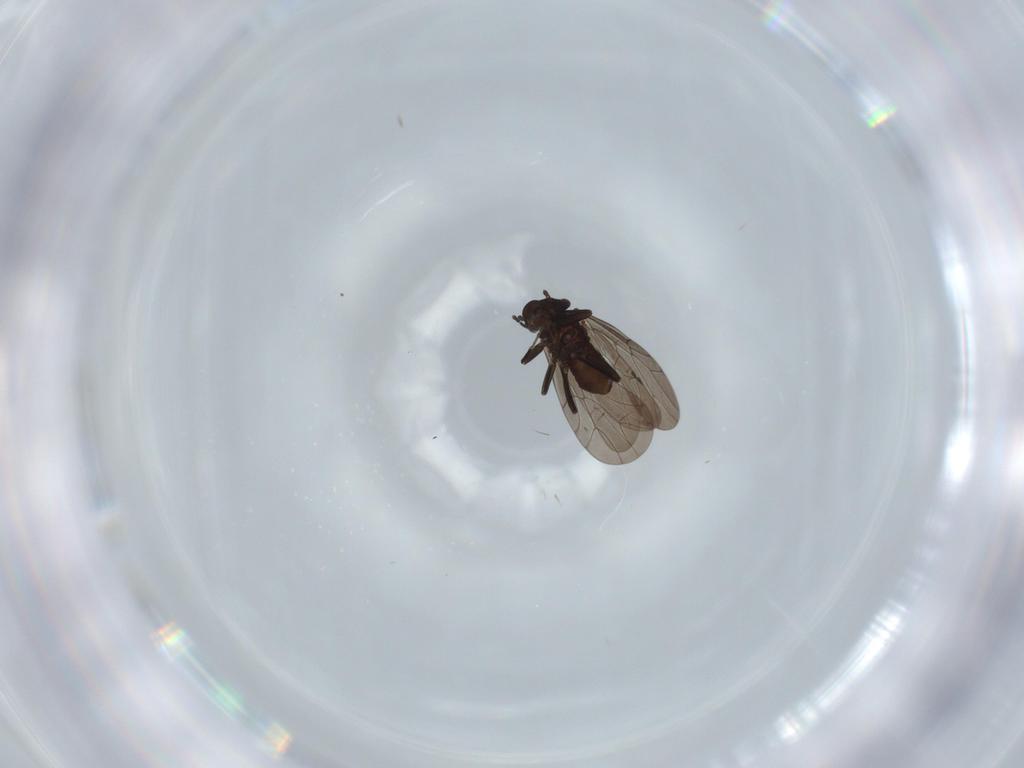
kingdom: Animalia
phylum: Arthropoda
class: Insecta
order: Psocodea
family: Lepidopsocidae
